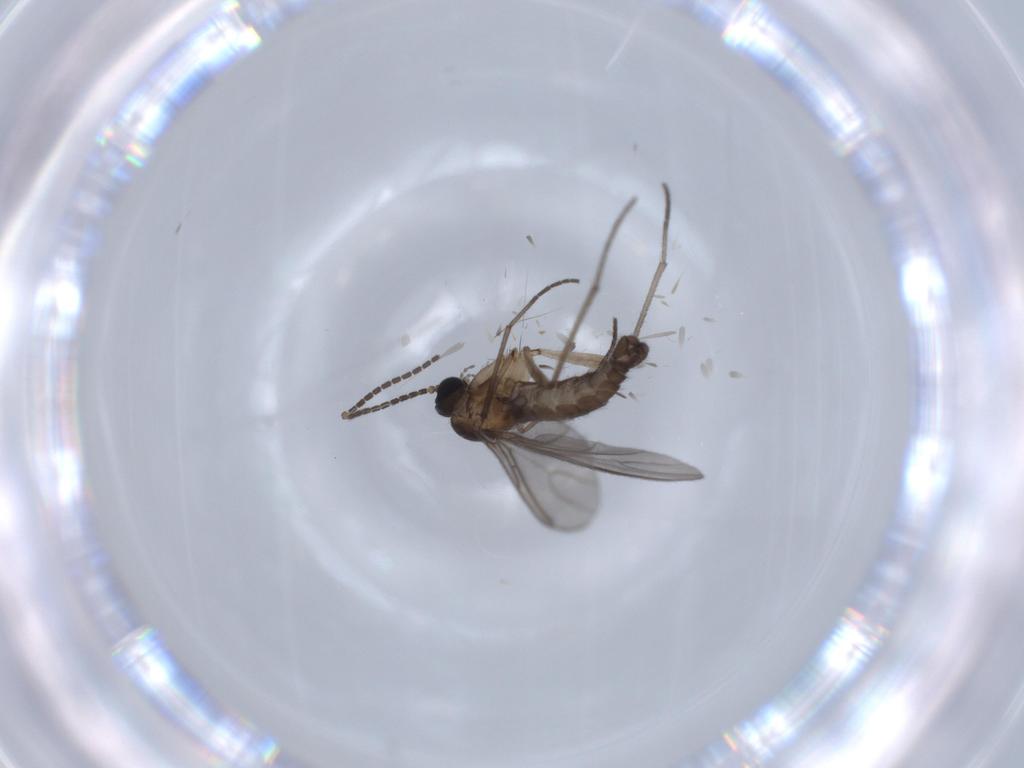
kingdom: Animalia
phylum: Arthropoda
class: Insecta
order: Diptera
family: Sciaridae
